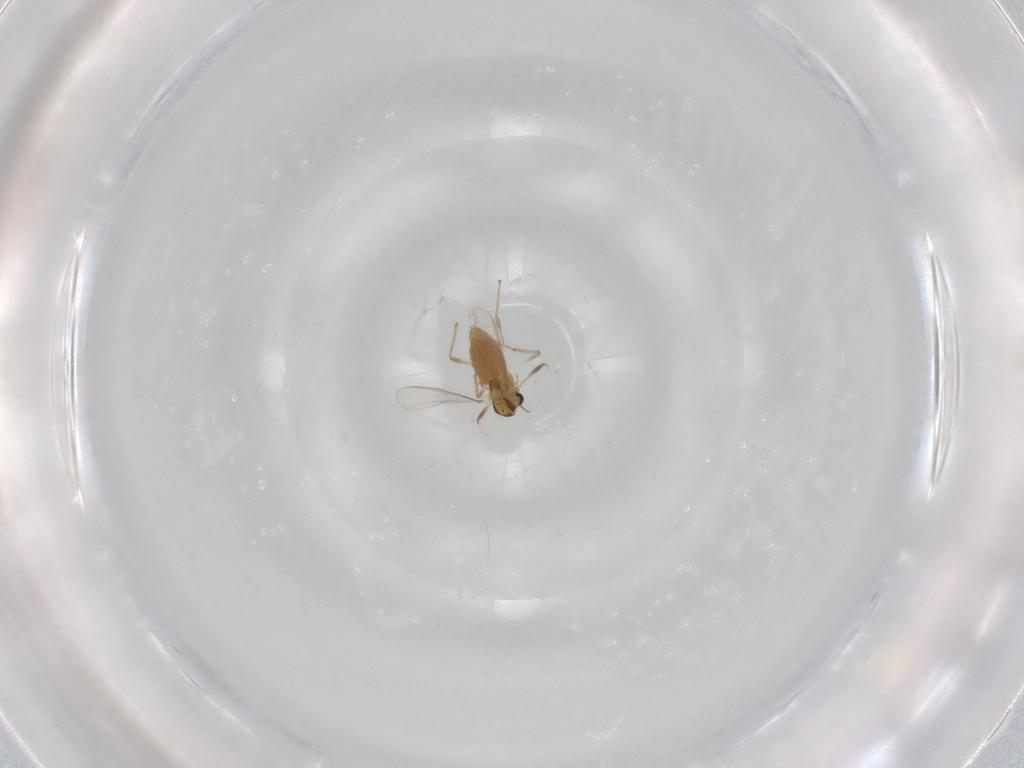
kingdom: Animalia
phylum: Arthropoda
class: Insecta
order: Diptera
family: Chironomidae
